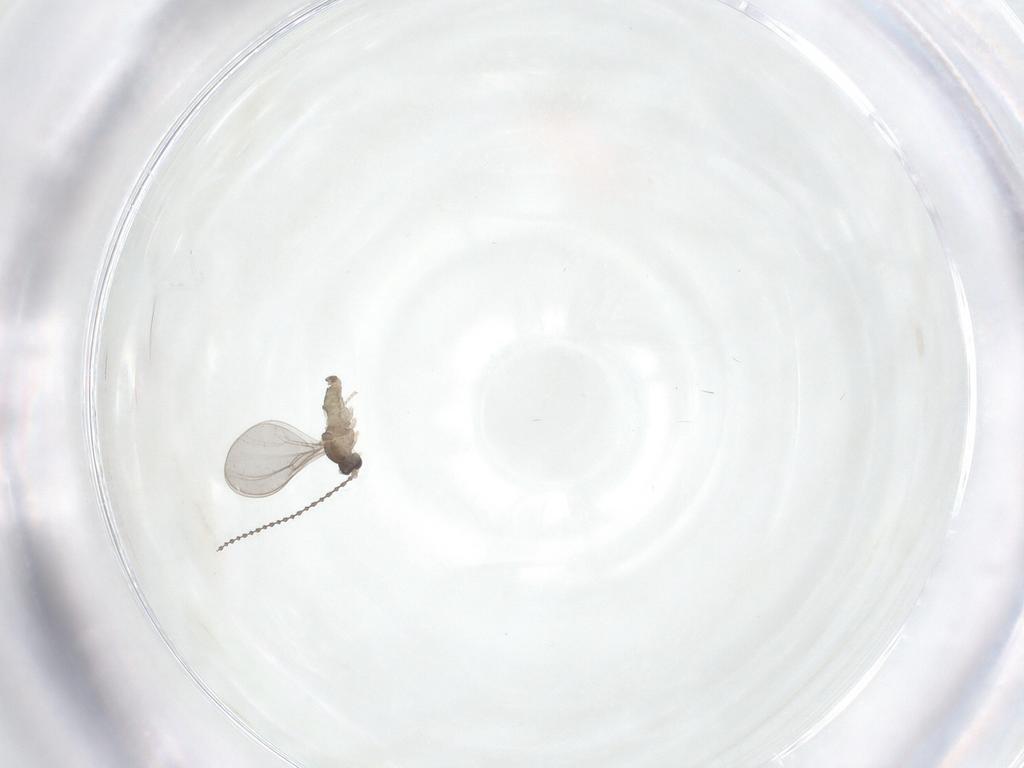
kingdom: Animalia
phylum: Arthropoda
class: Insecta
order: Diptera
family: Cecidomyiidae
